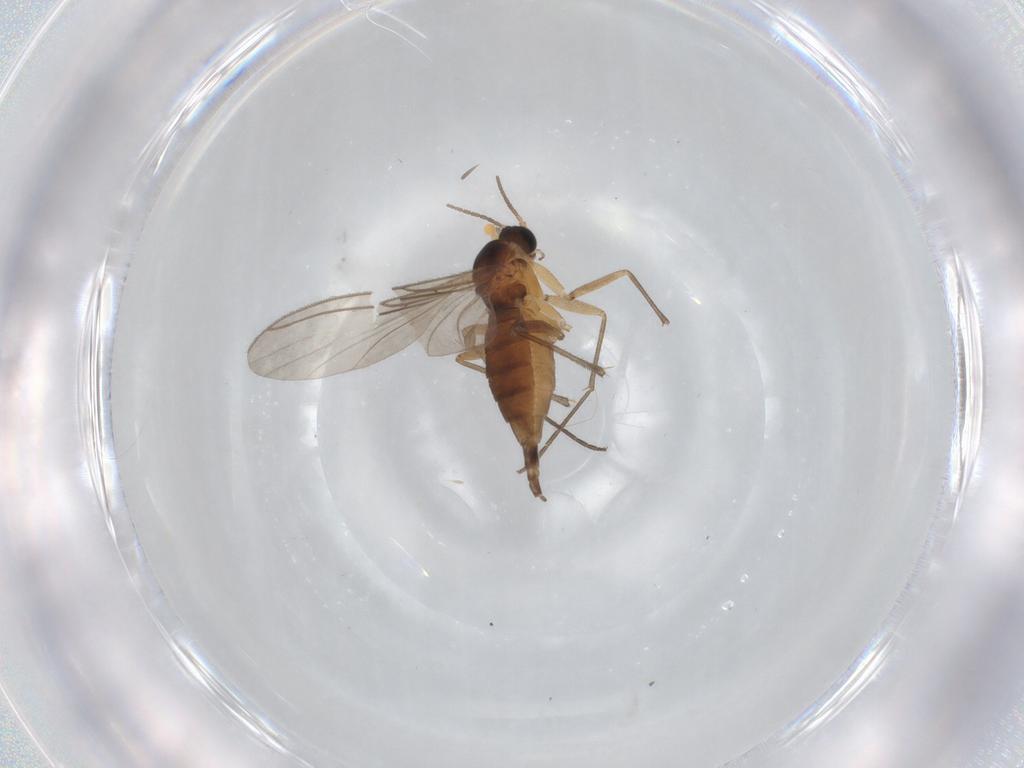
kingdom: Animalia
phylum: Arthropoda
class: Insecta
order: Diptera
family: Sciaridae
